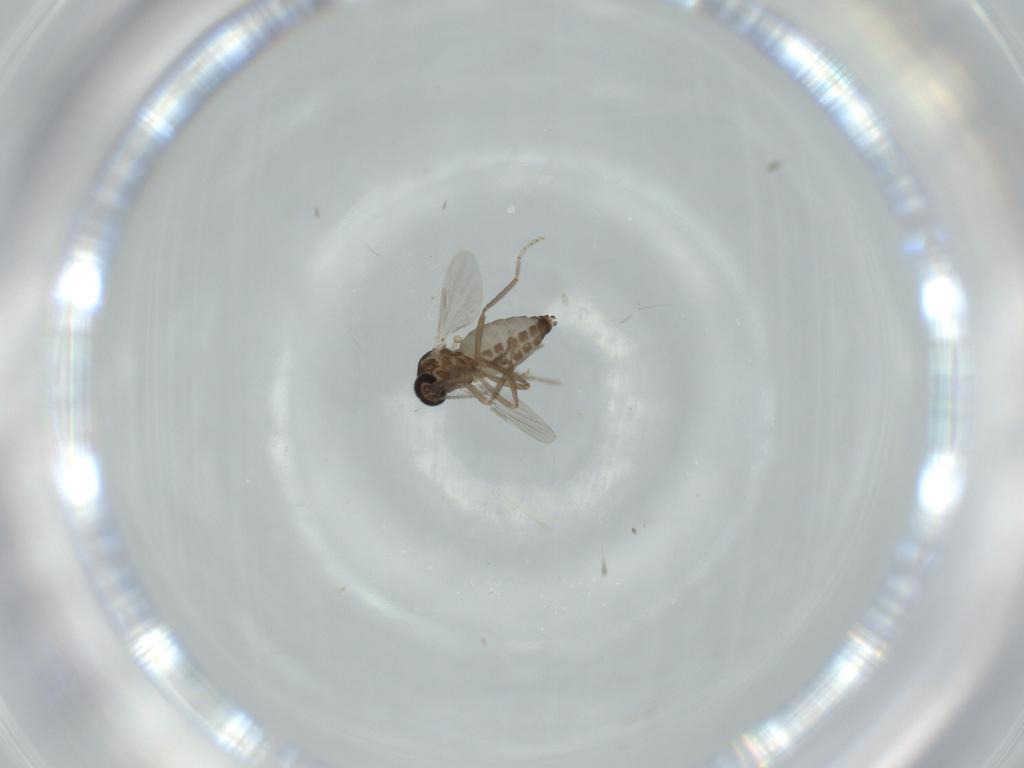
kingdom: Animalia
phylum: Arthropoda
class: Insecta
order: Diptera
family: Ceratopogonidae
